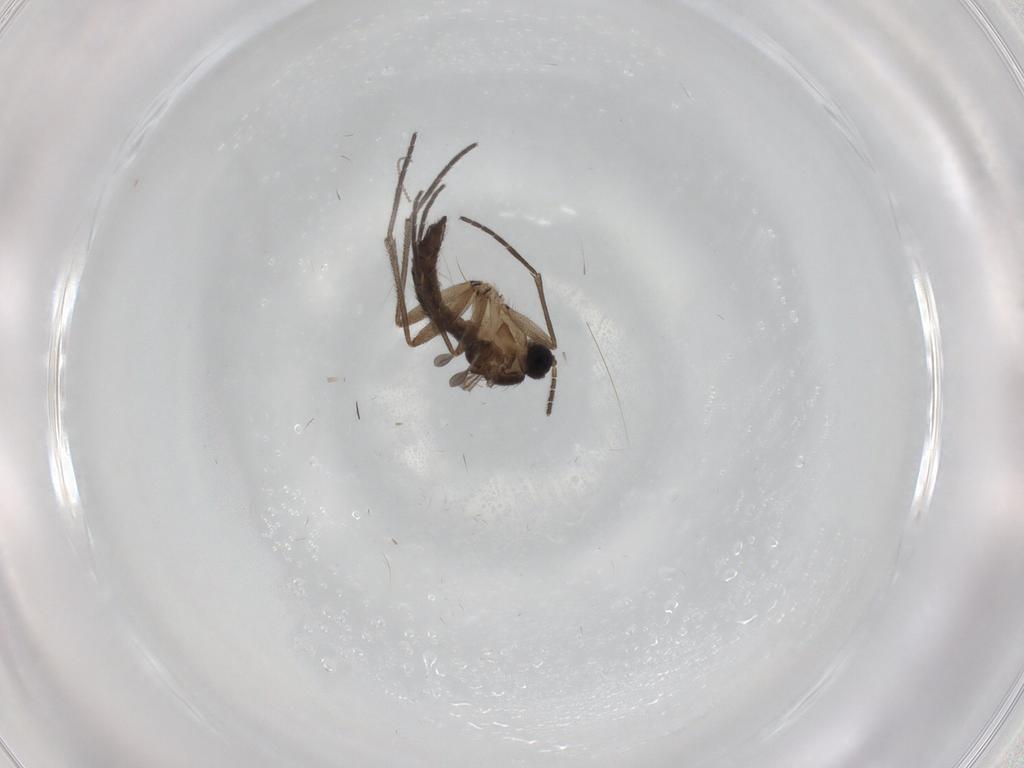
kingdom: Animalia
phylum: Arthropoda
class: Insecta
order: Diptera
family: Sciaridae
